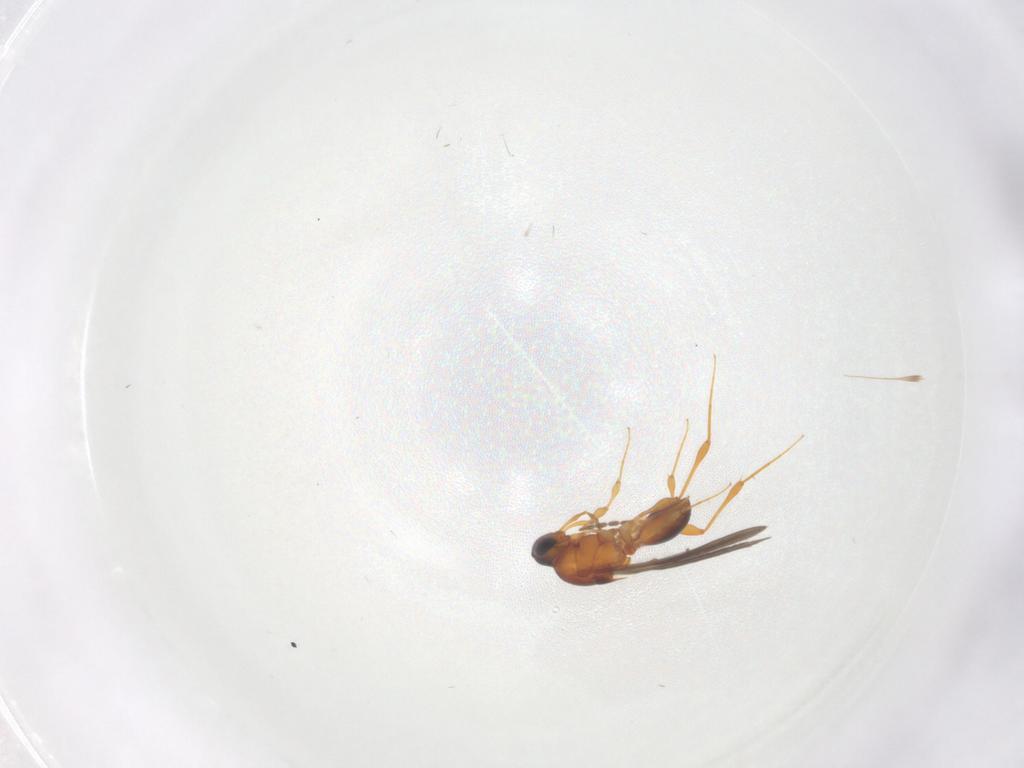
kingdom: Animalia
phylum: Arthropoda
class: Insecta
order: Hymenoptera
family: Platygastridae
